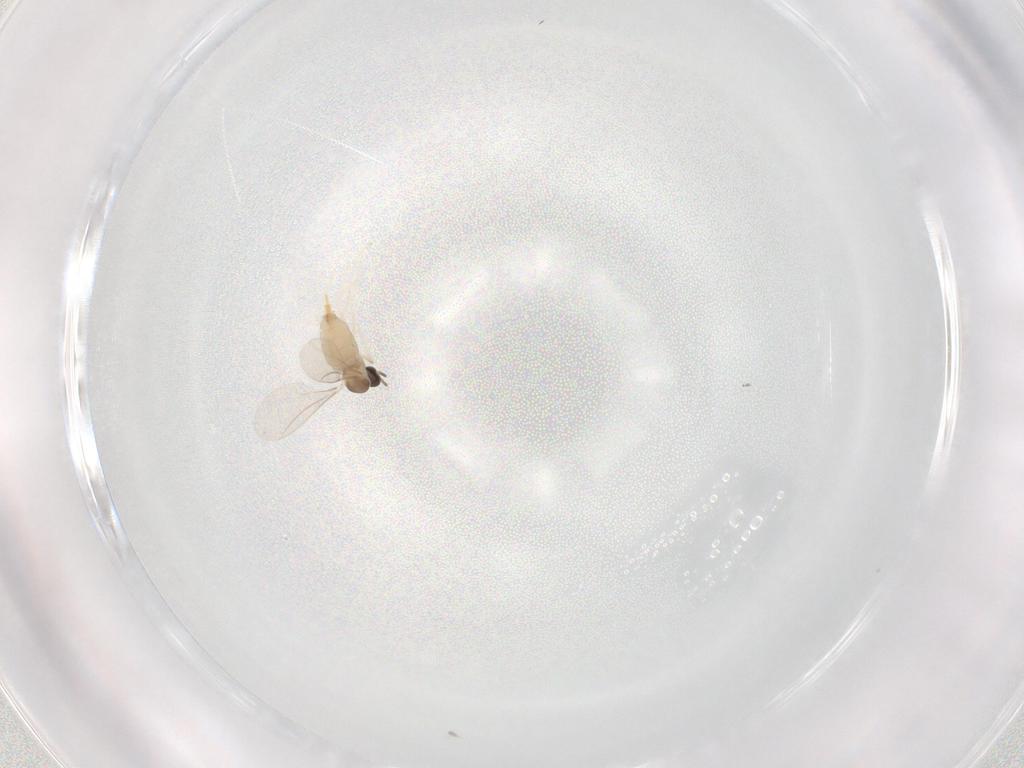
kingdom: Animalia
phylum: Arthropoda
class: Insecta
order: Diptera
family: Cecidomyiidae
